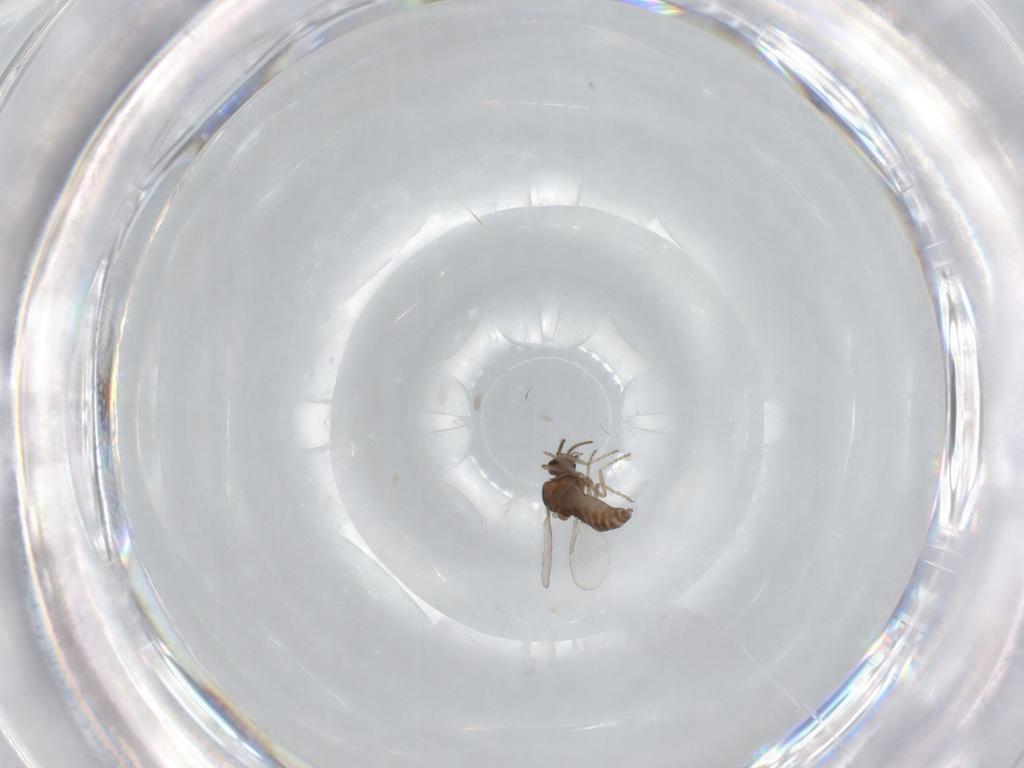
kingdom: Animalia
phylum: Arthropoda
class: Insecta
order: Diptera
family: Ceratopogonidae
